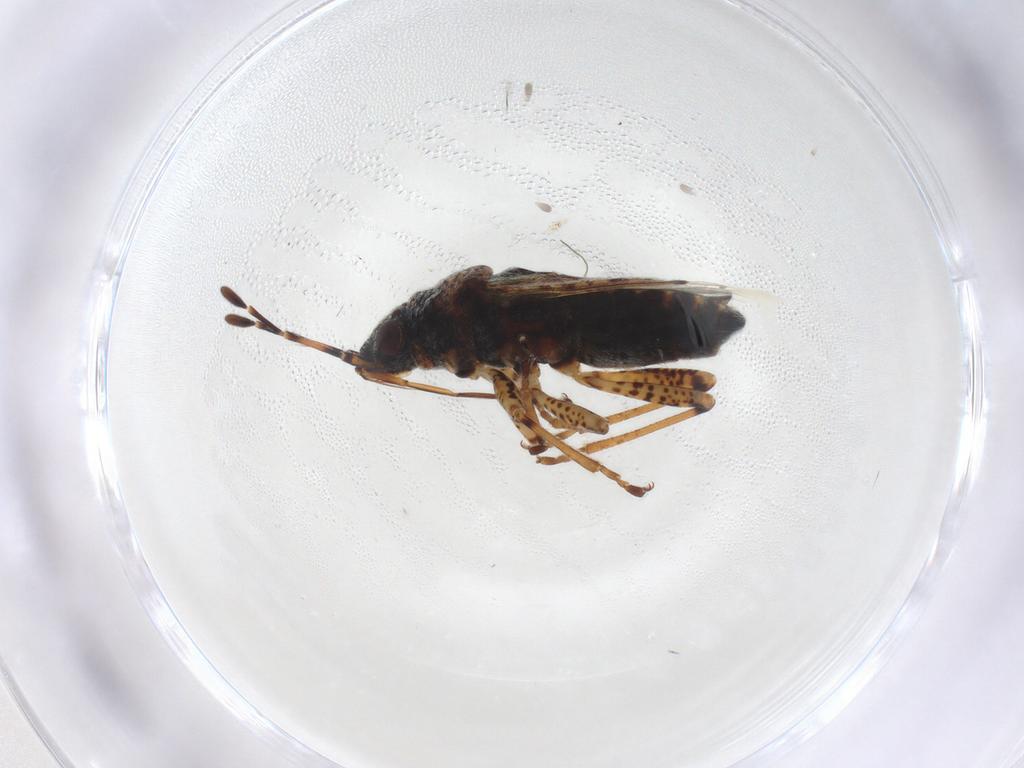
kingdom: Animalia
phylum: Arthropoda
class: Insecta
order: Hemiptera
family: Lygaeidae
